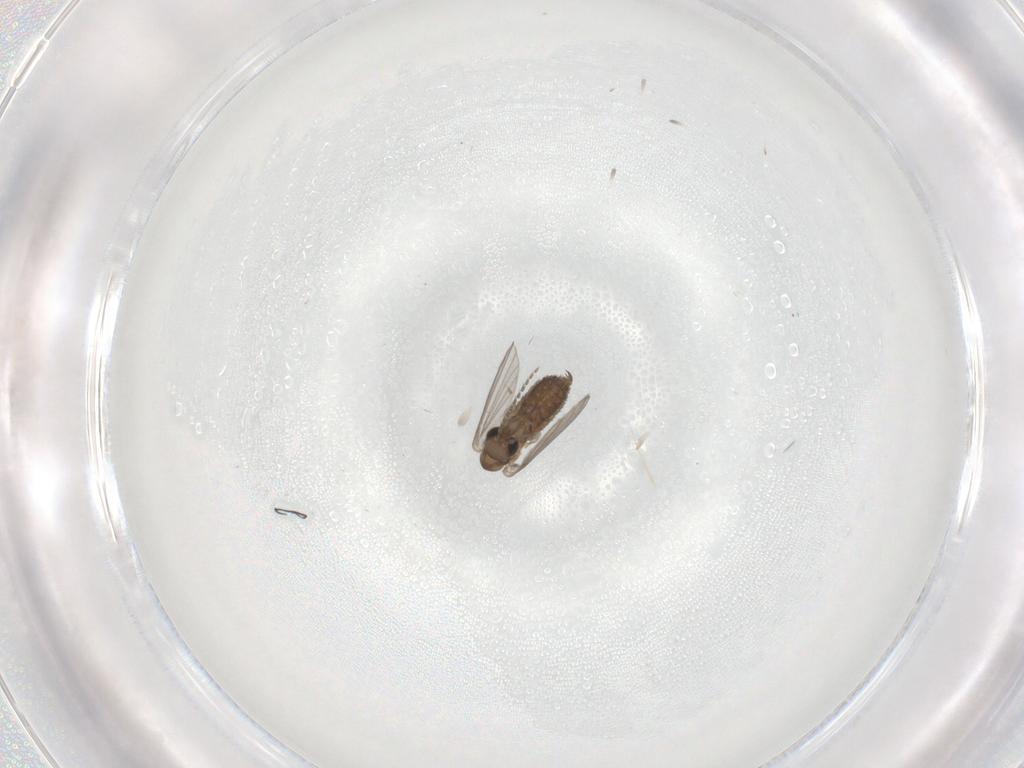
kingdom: Animalia
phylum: Arthropoda
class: Insecta
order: Diptera
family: Limoniidae
